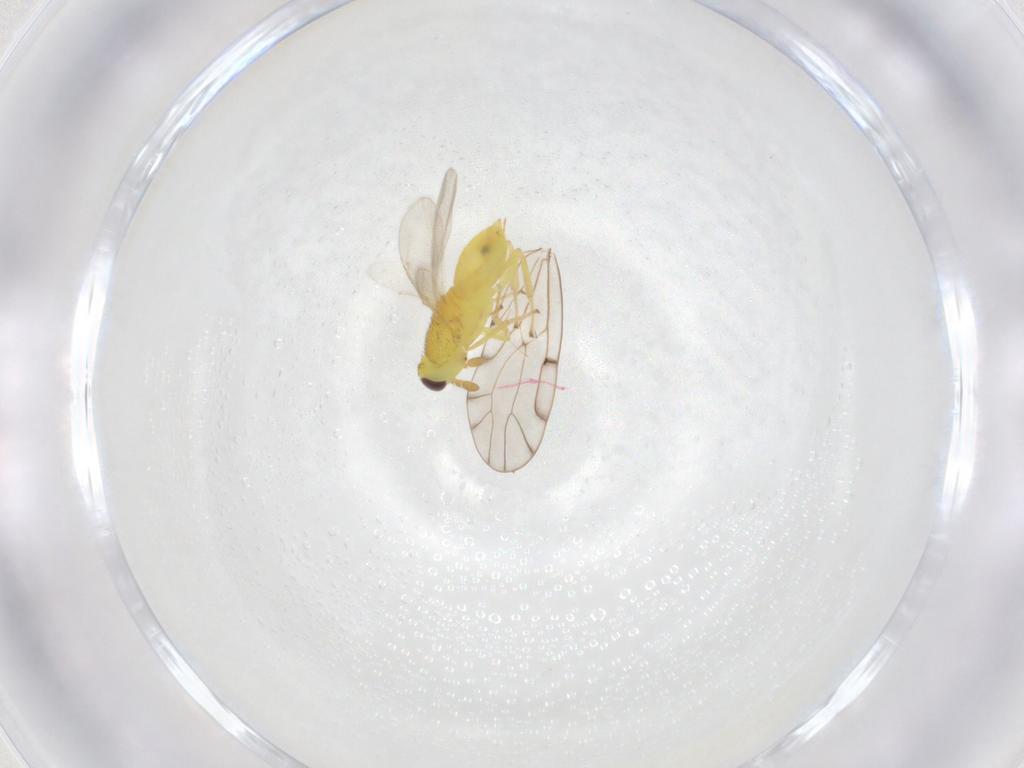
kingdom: Animalia
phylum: Arthropoda
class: Insecta
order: Hymenoptera
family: Aphelinidae
